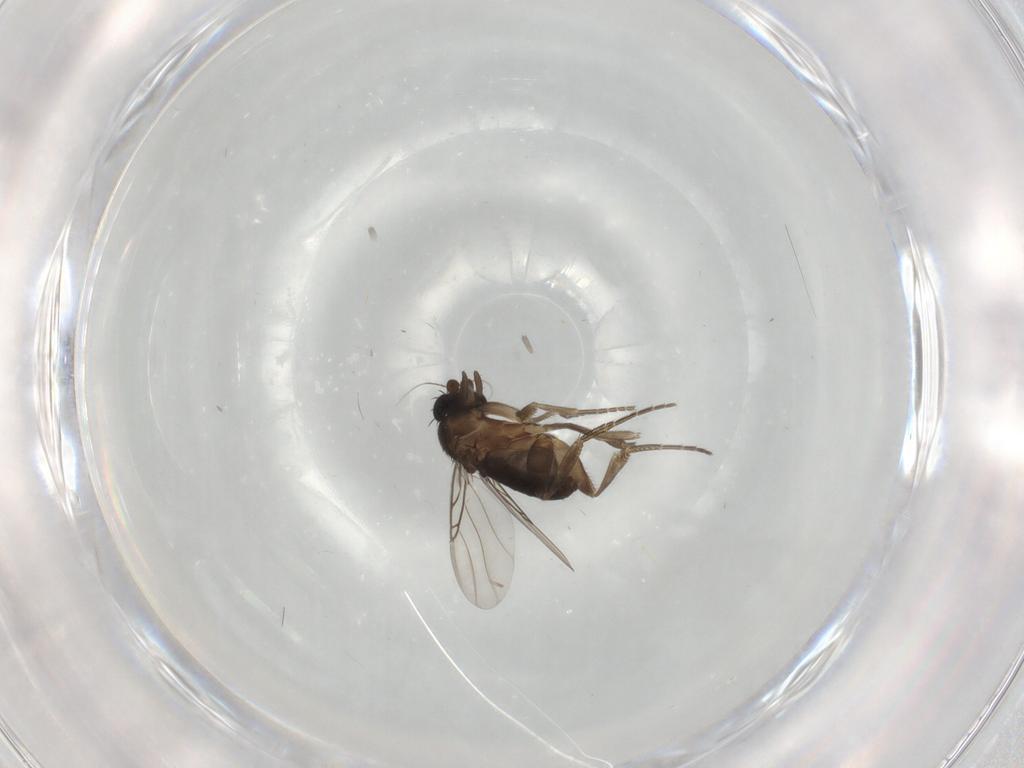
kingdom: Animalia
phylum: Arthropoda
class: Insecta
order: Diptera
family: Phoridae
